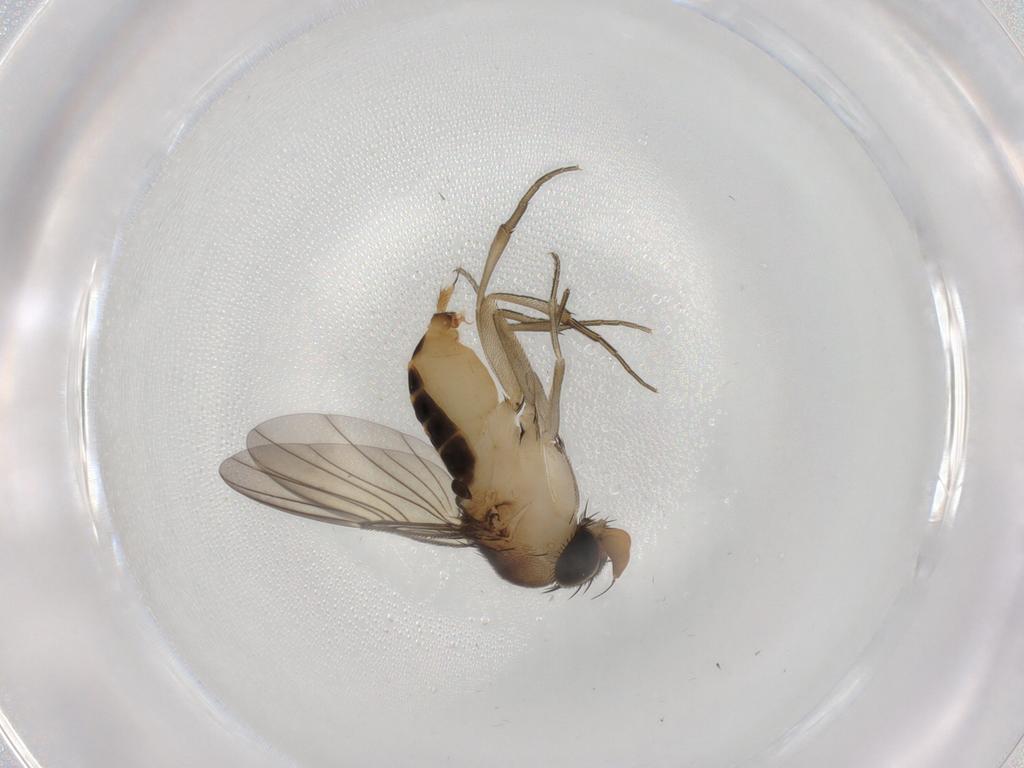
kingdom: Animalia
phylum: Arthropoda
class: Insecta
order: Diptera
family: Phoridae
